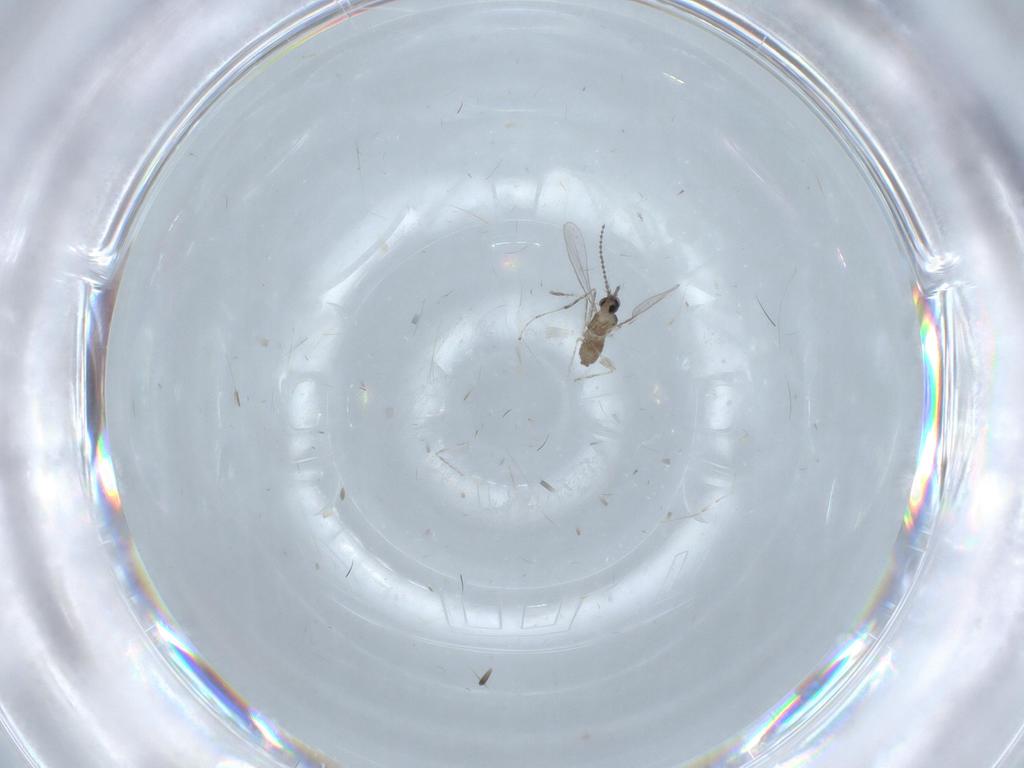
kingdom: Animalia
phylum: Arthropoda
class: Insecta
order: Diptera
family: Cecidomyiidae
